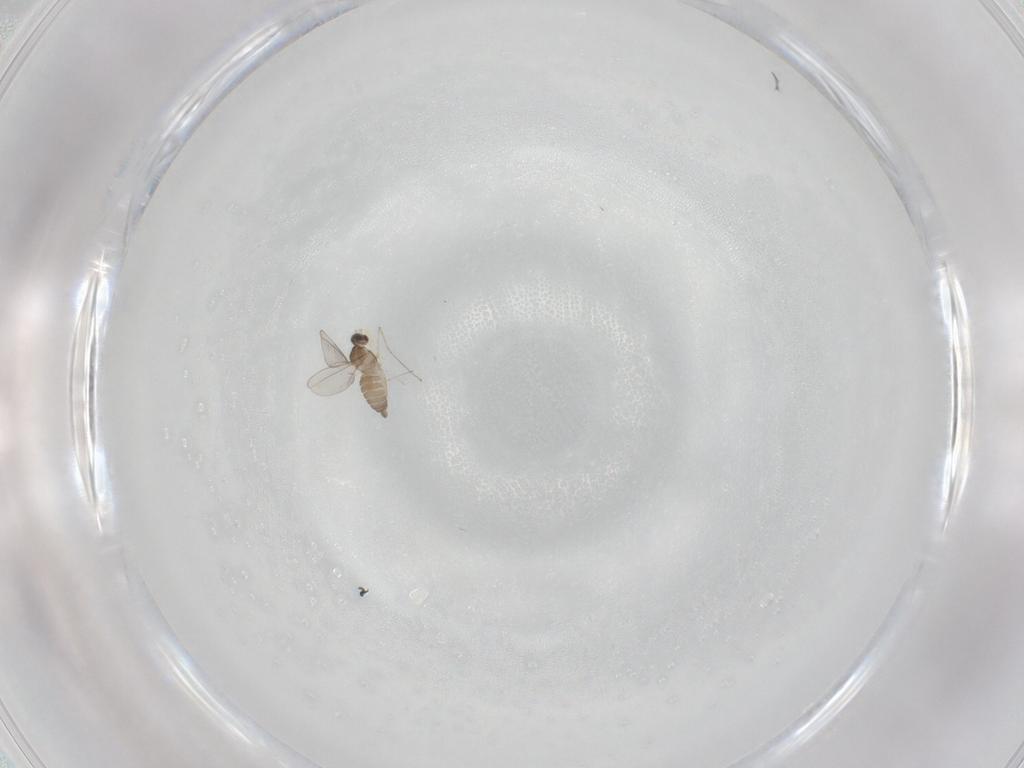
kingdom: Animalia
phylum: Arthropoda
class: Insecta
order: Diptera
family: Cecidomyiidae
